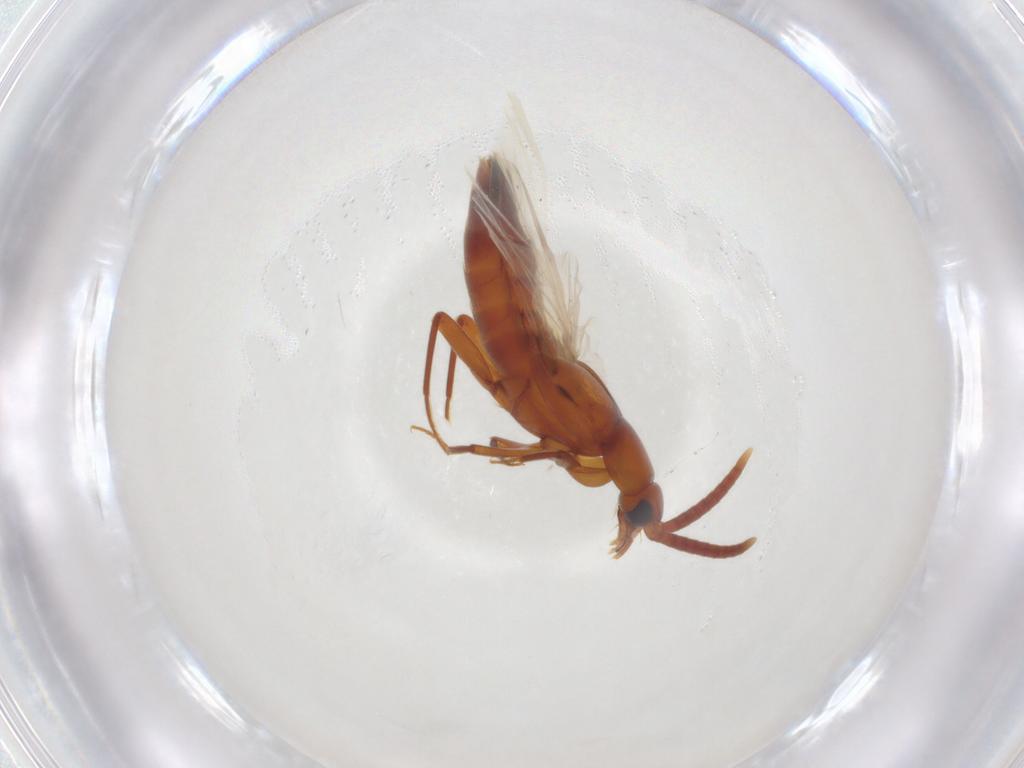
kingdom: Animalia
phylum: Arthropoda
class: Insecta
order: Coleoptera
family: Staphylinidae
